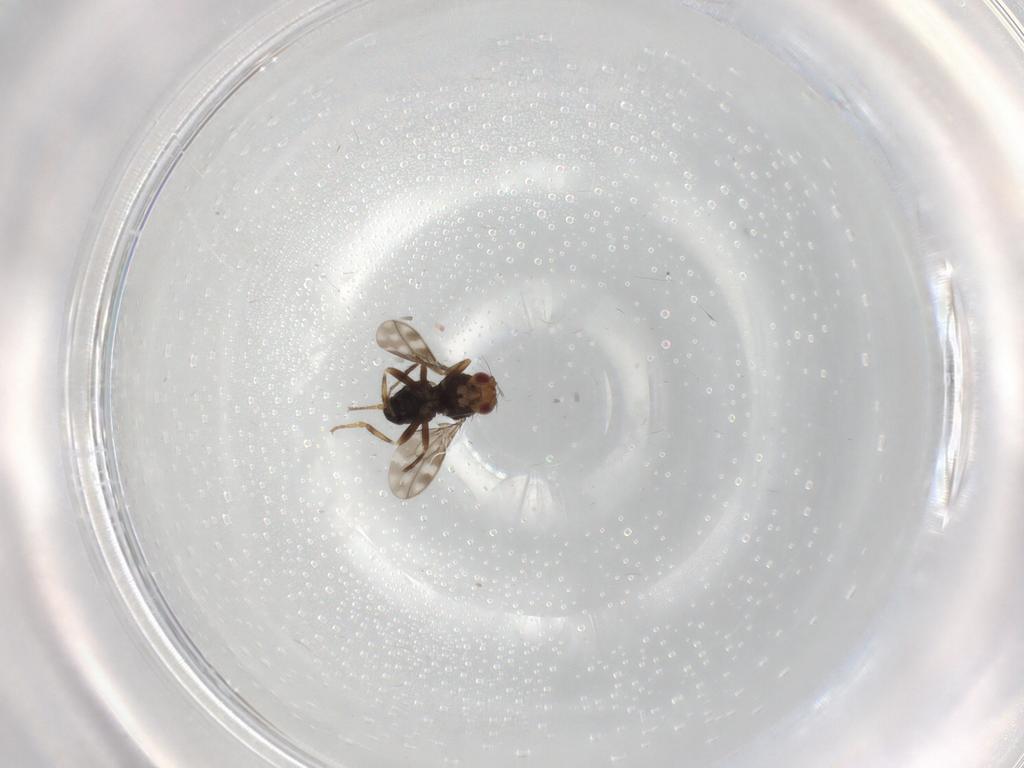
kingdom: Animalia
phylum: Arthropoda
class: Insecta
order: Diptera
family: Sphaeroceridae
